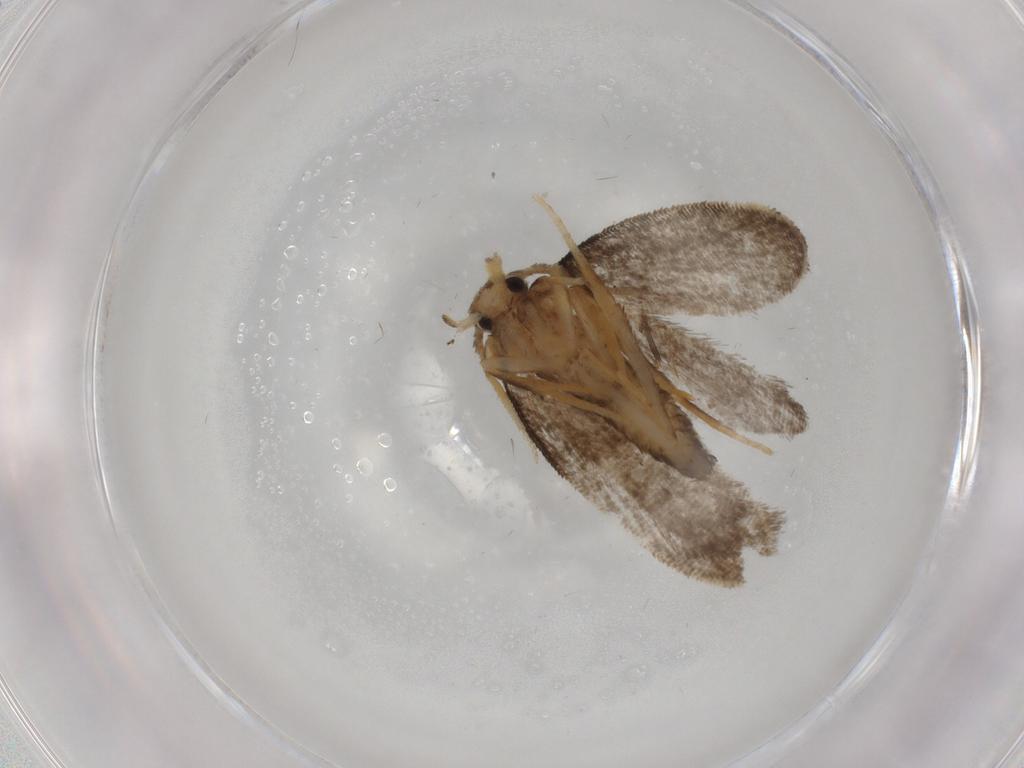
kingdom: Animalia
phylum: Arthropoda
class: Insecta
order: Lepidoptera
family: Psychidae
